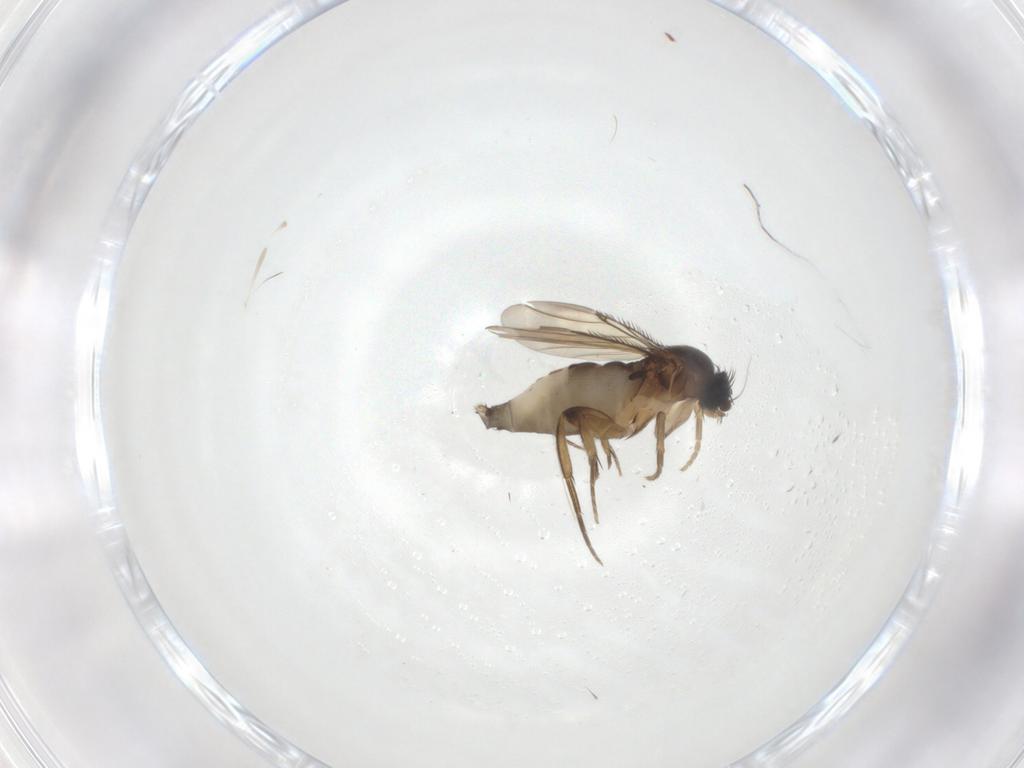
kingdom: Animalia
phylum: Arthropoda
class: Insecta
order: Diptera
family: Phoridae
